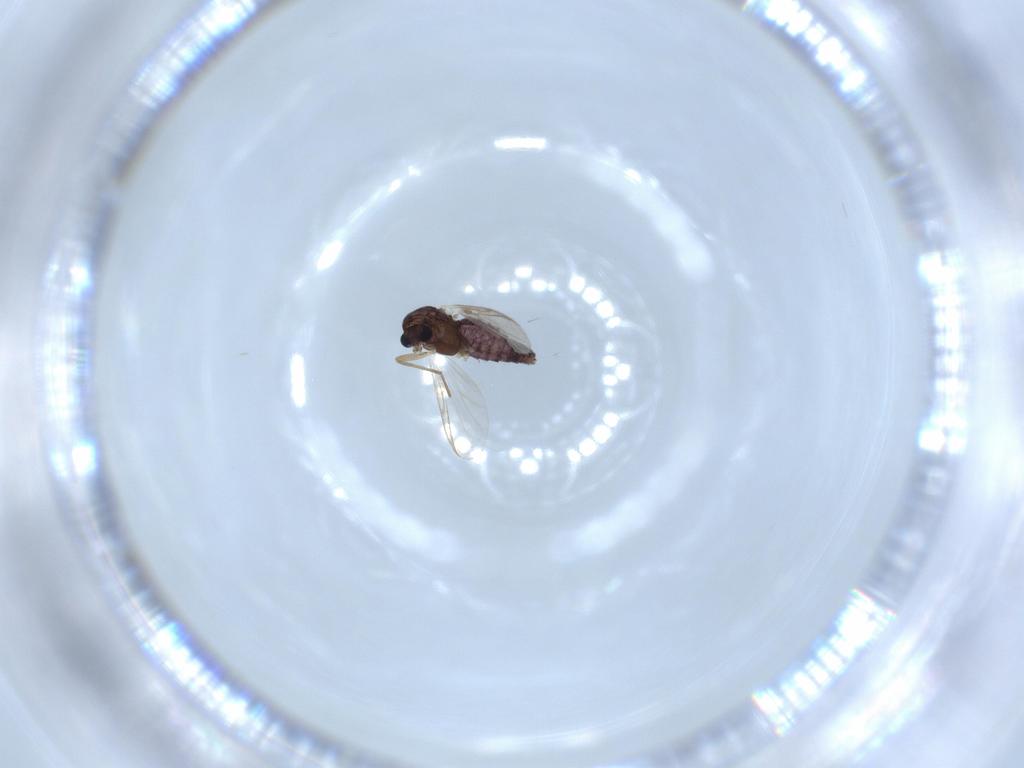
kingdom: Animalia
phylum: Arthropoda
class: Insecta
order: Diptera
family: Chironomidae
